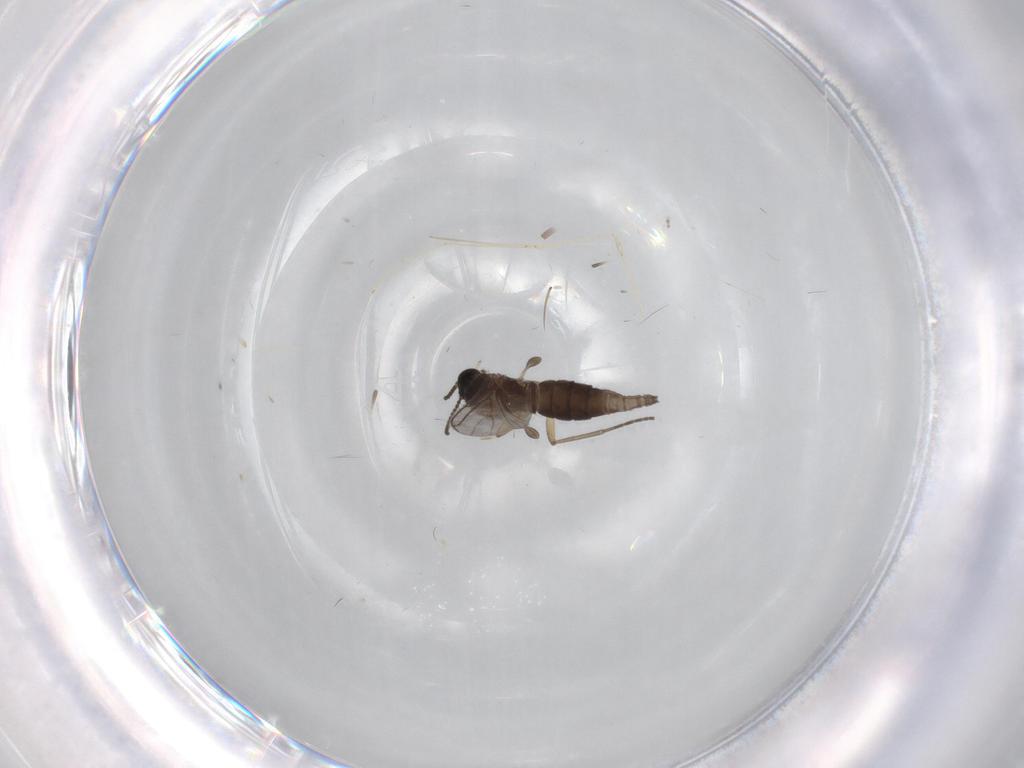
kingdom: Animalia
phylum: Arthropoda
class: Insecta
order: Diptera
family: Sciaridae
